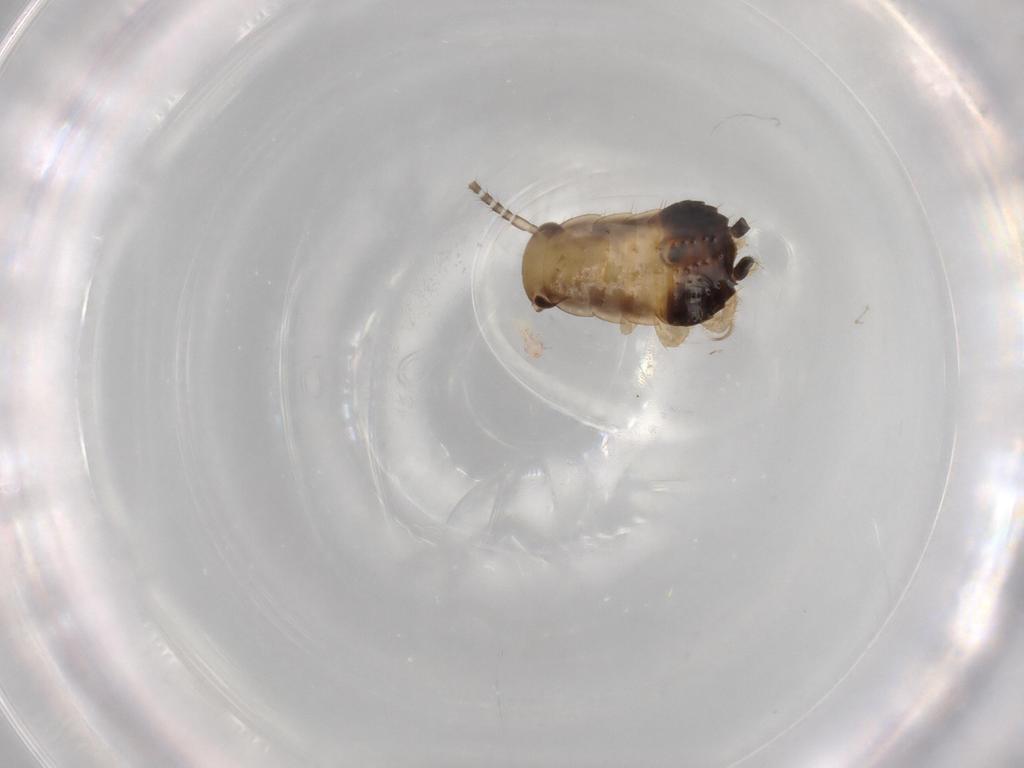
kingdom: Animalia
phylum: Arthropoda
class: Insecta
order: Blattodea
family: Ectobiidae
